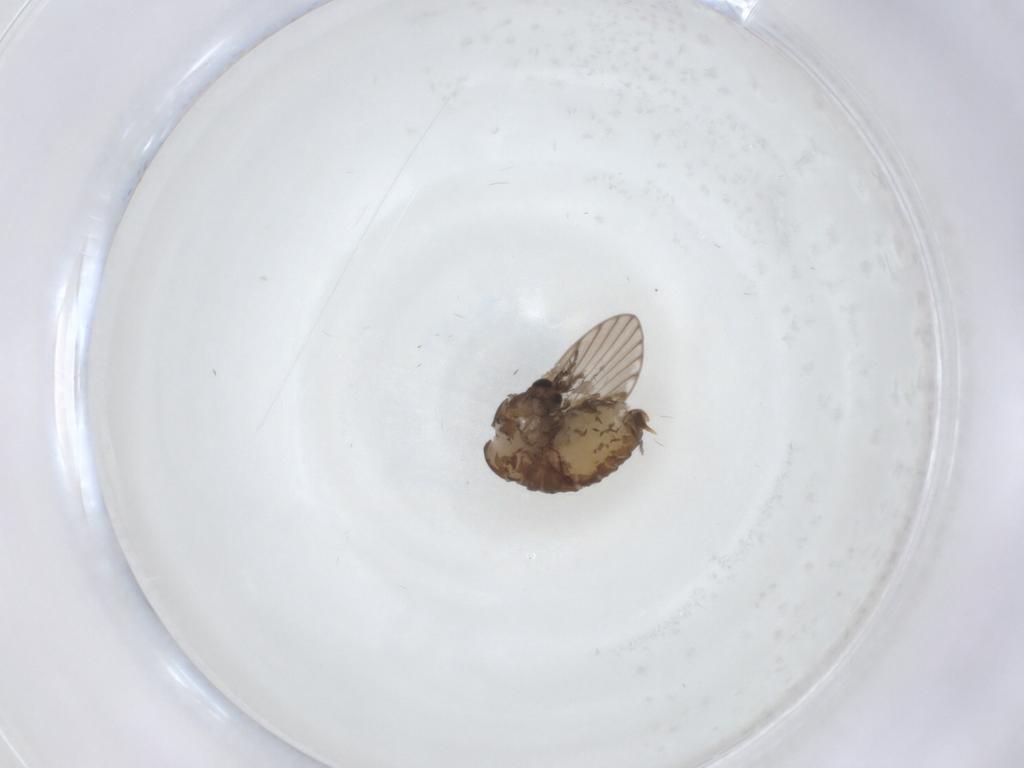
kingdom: Animalia
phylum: Arthropoda
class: Insecta
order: Diptera
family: Psychodidae
